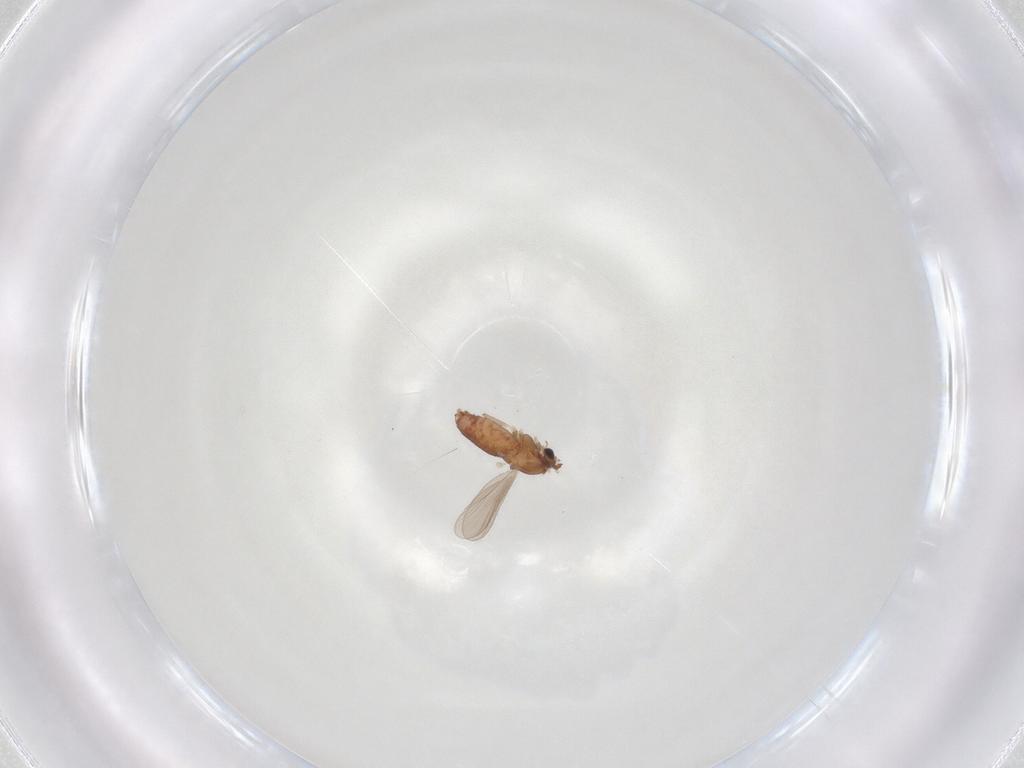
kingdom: Animalia
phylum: Arthropoda
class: Insecta
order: Diptera
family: Chironomidae
